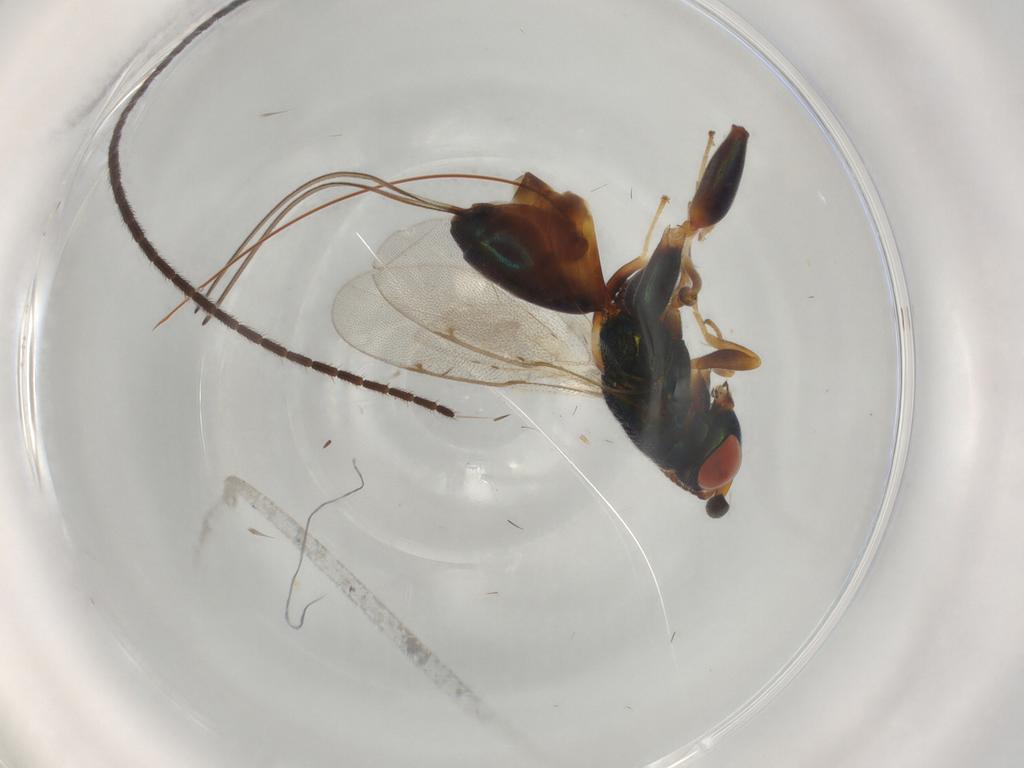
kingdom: Animalia
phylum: Arthropoda
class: Insecta
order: Hymenoptera
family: Torymidae
